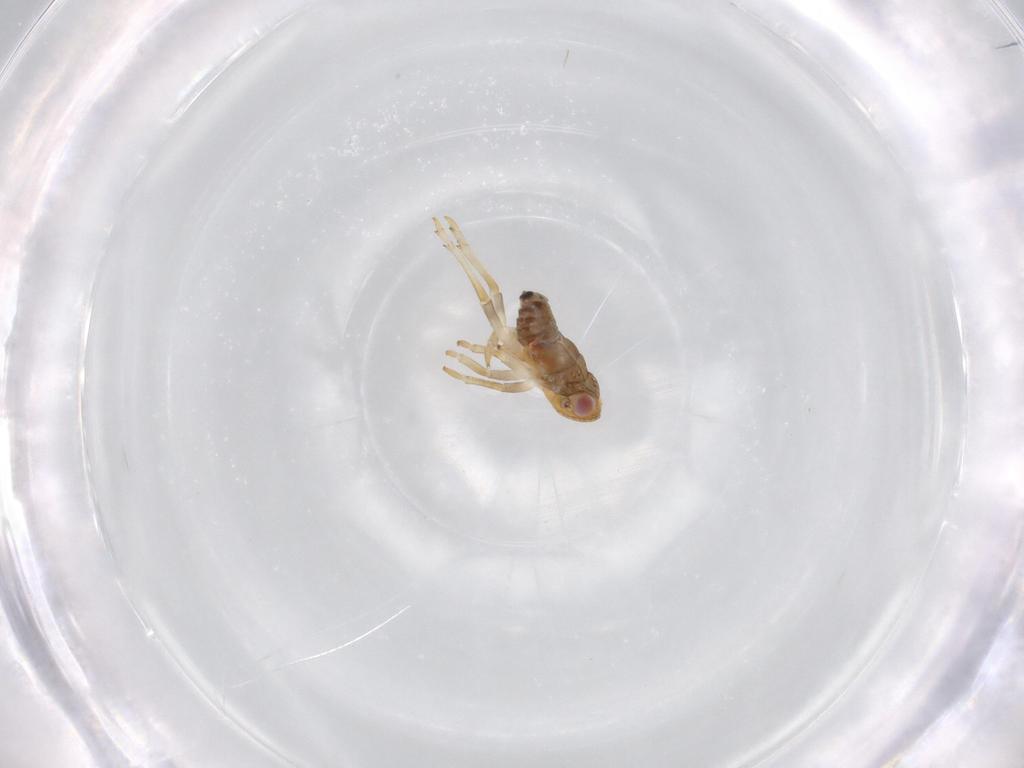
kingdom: Animalia
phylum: Arthropoda
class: Insecta
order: Hemiptera
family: Issidae
